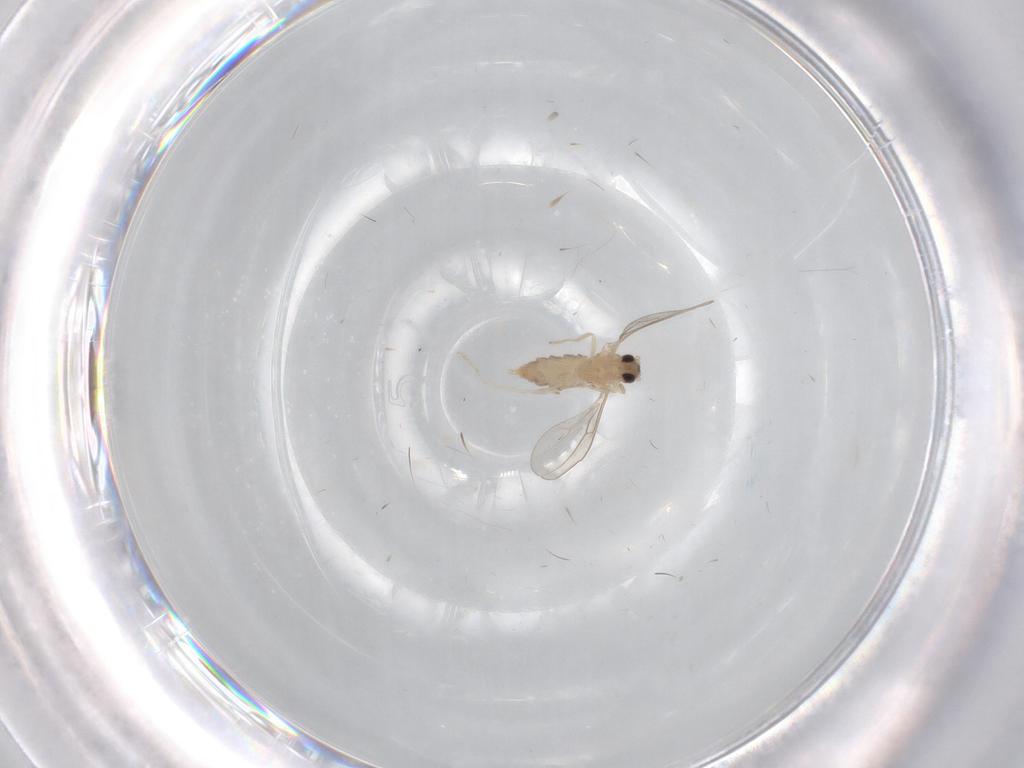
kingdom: Animalia
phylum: Arthropoda
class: Insecta
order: Diptera
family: Cecidomyiidae
